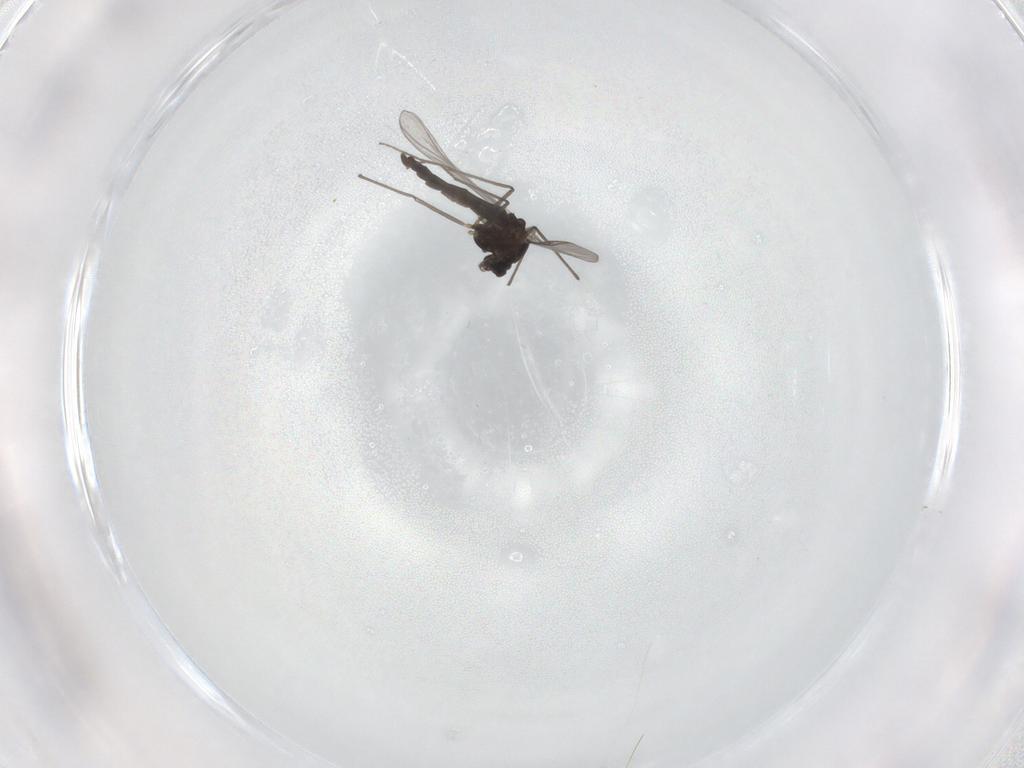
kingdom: Animalia
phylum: Arthropoda
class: Insecta
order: Diptera
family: Chironomidae
